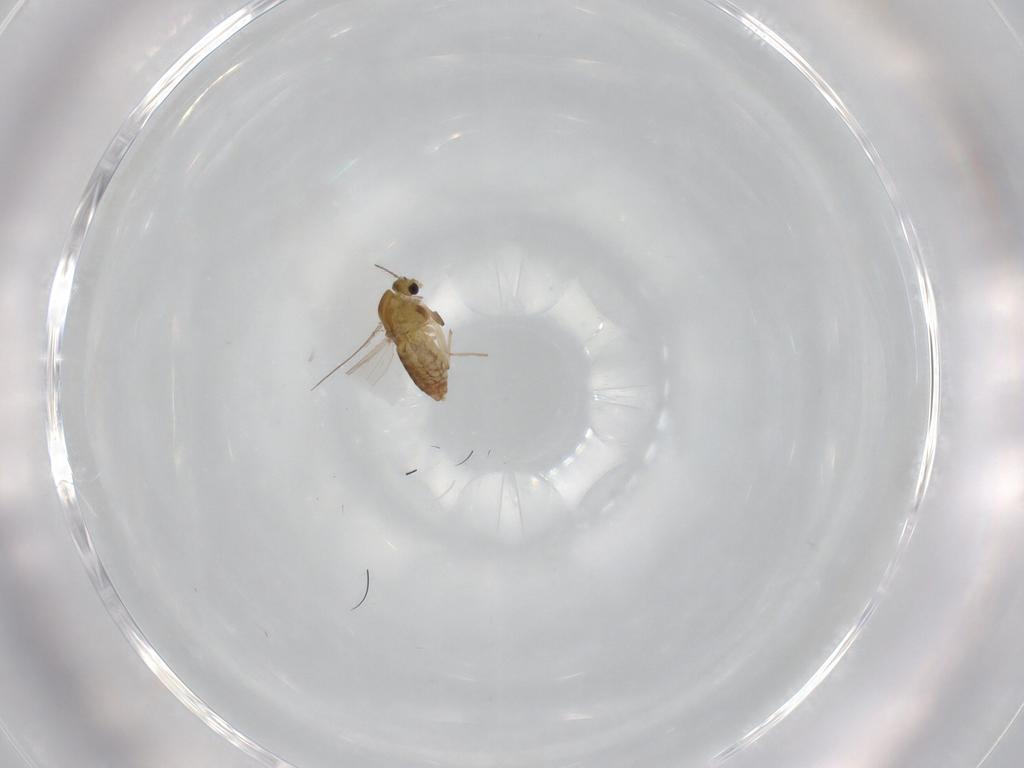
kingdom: Animalia
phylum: Arthropoda
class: Insecta
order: Diptera
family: Chironomidae
